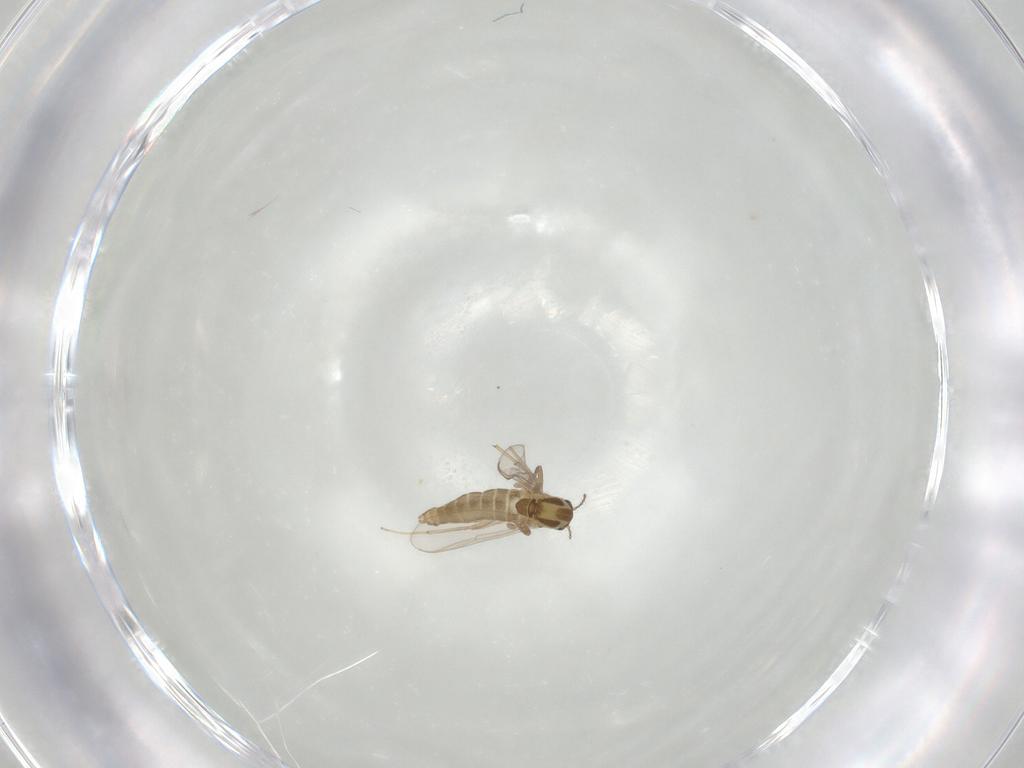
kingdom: Animalia
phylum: Arthropoda
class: Insecta
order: Diptera
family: Chironomidae
